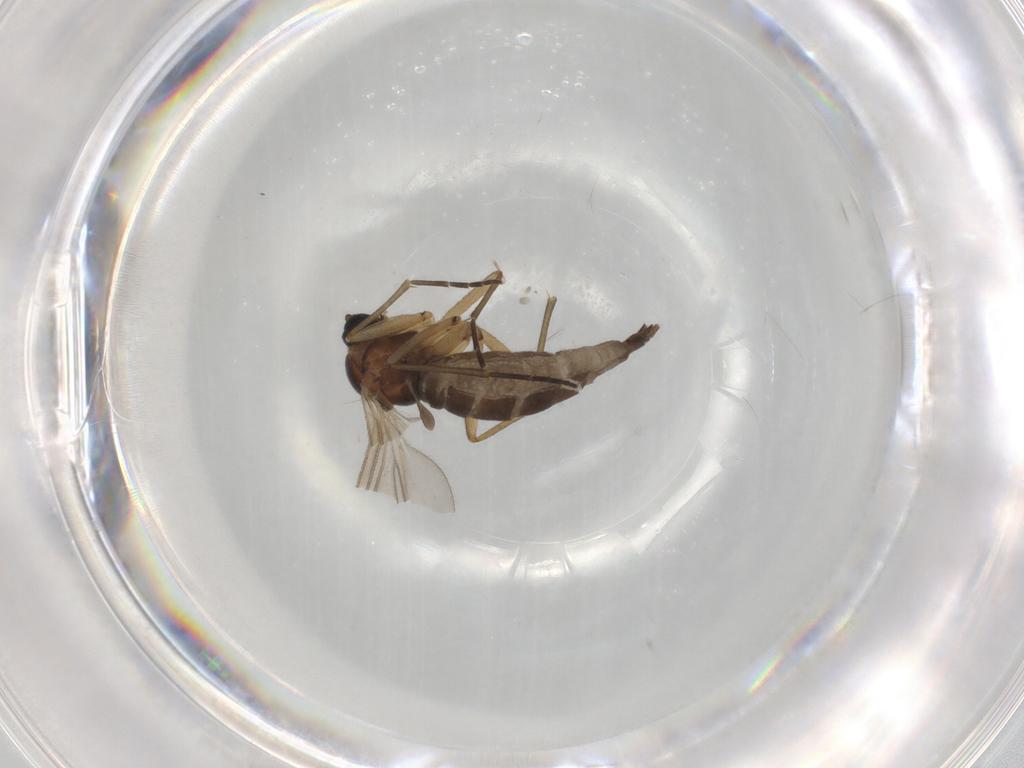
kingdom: Animalia
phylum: Arthropoda
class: Insecta
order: Diptera
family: Sciaridae
